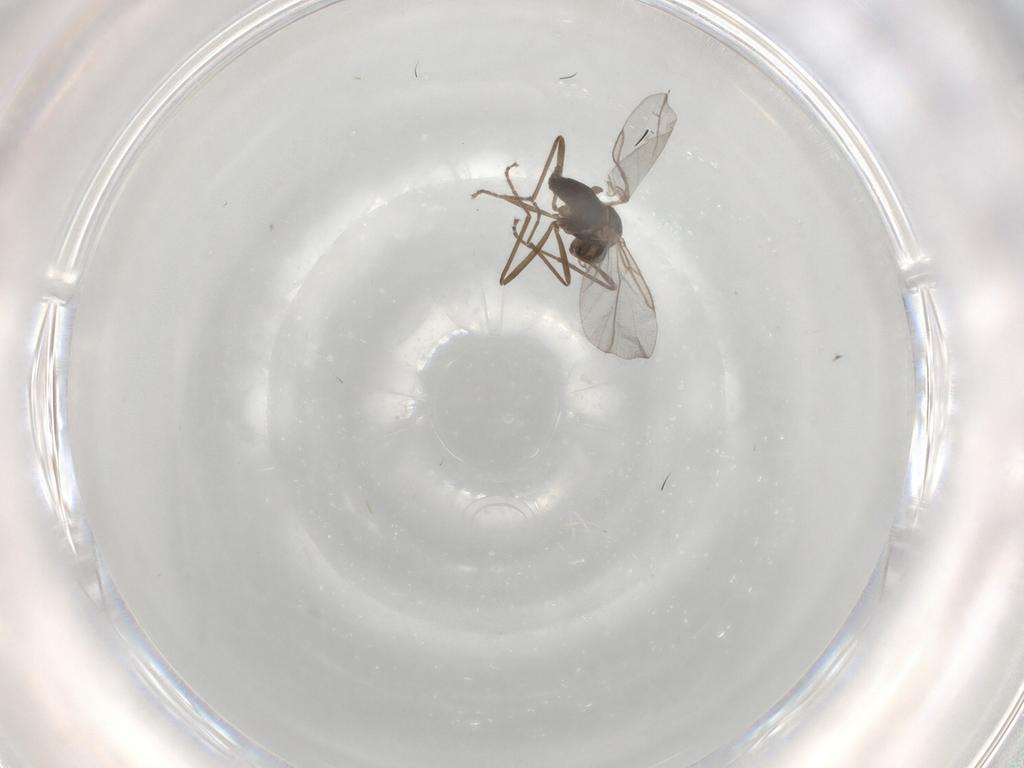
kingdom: Animalia
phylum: Arthropoda
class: Insecta
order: Diptera
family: Cecidomyiidae
